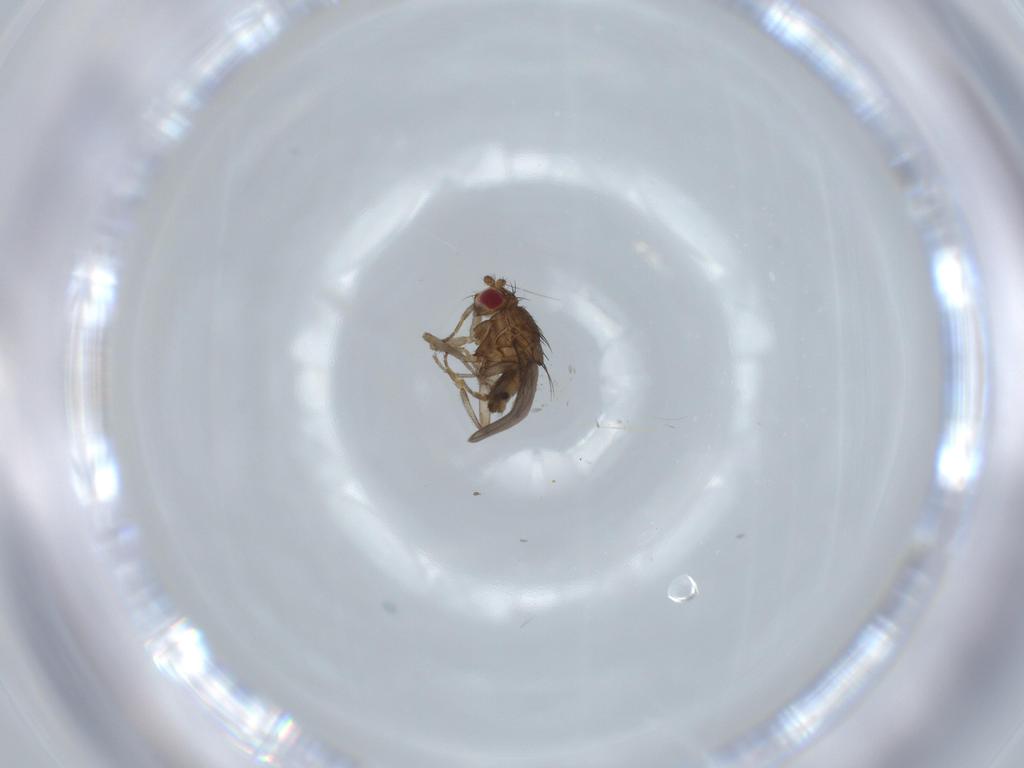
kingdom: Animalia
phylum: Arthropoda
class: Insecta
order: Diptera
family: Sphaeroceridae
